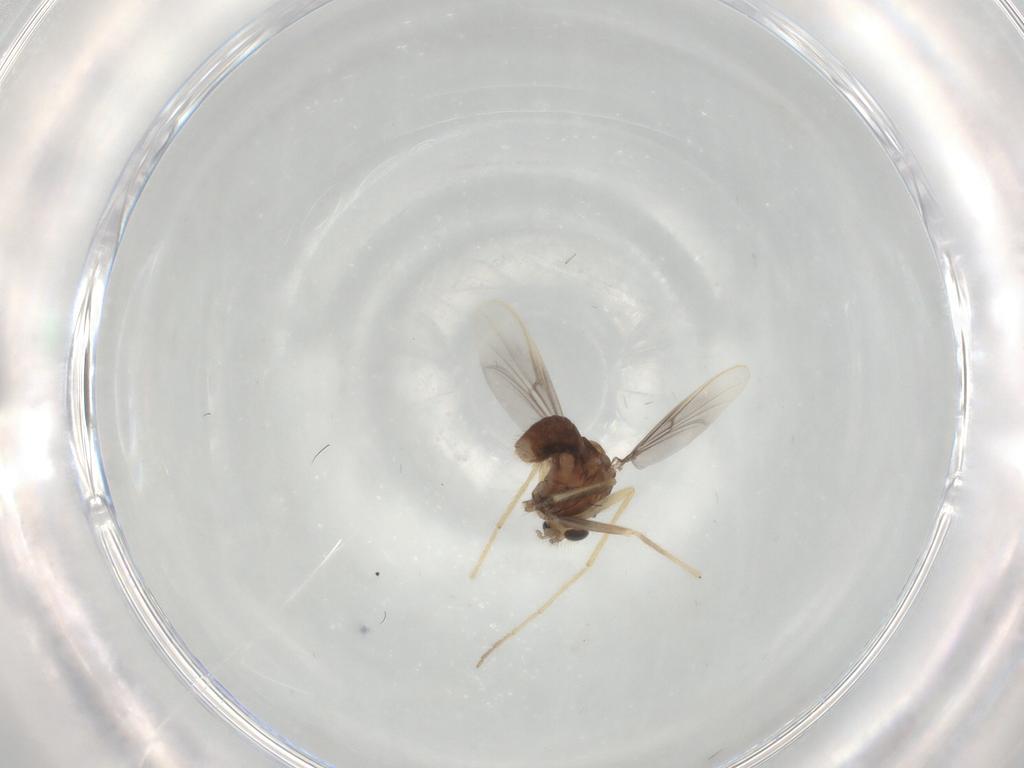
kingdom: Animalia
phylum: Arthropoda
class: Insecta
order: Diptera
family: Chironomidae
